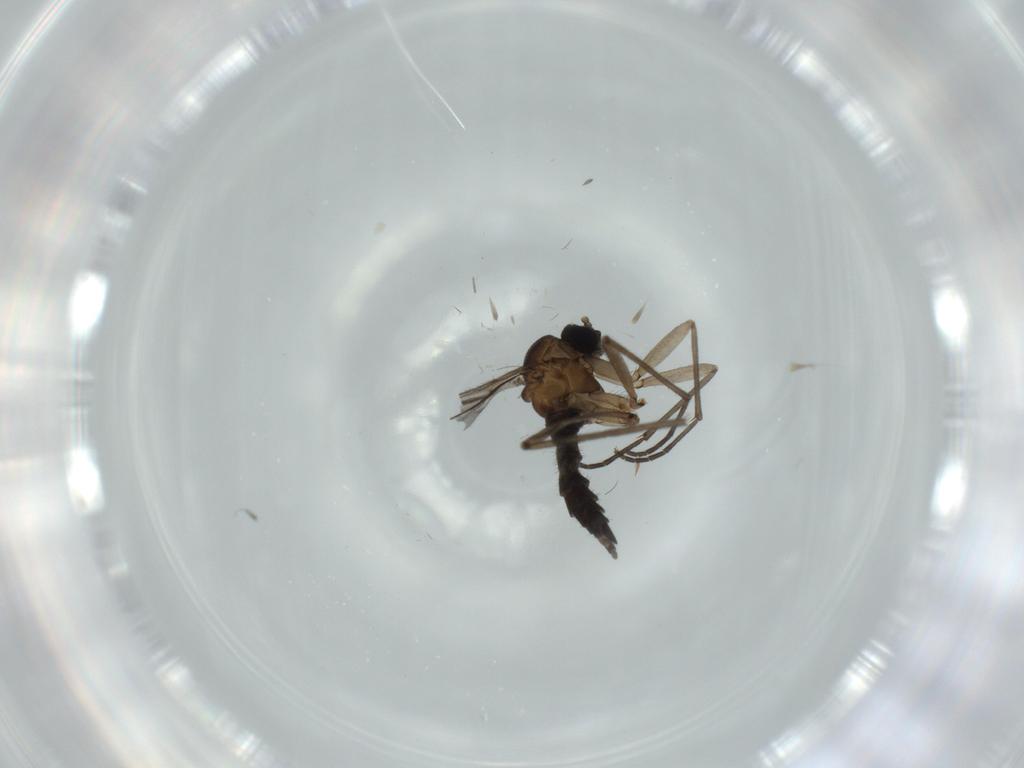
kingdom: Animalia
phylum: Arthropoda
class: Insecta
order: Diptera
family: Sciaridae
